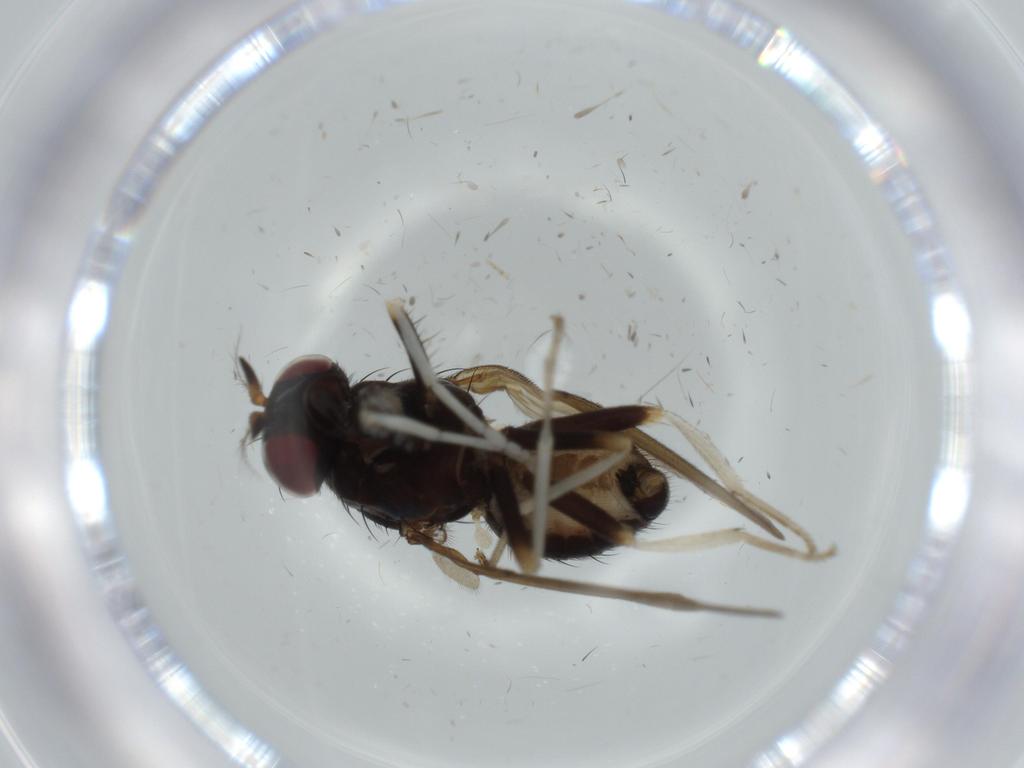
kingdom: Animalia
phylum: Arthropoda
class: Insecta
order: Diptera
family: Lauxaniidae
